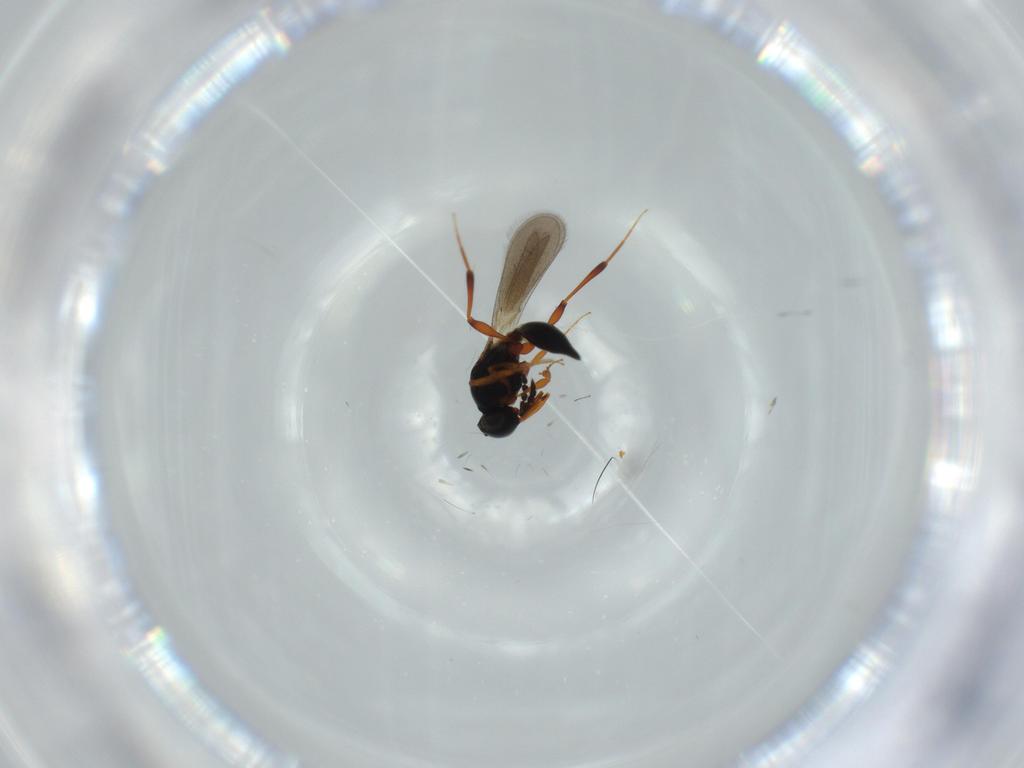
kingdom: Animalia
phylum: Arthropoda
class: Insecta
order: Hymenoptera
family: Platygastridae
